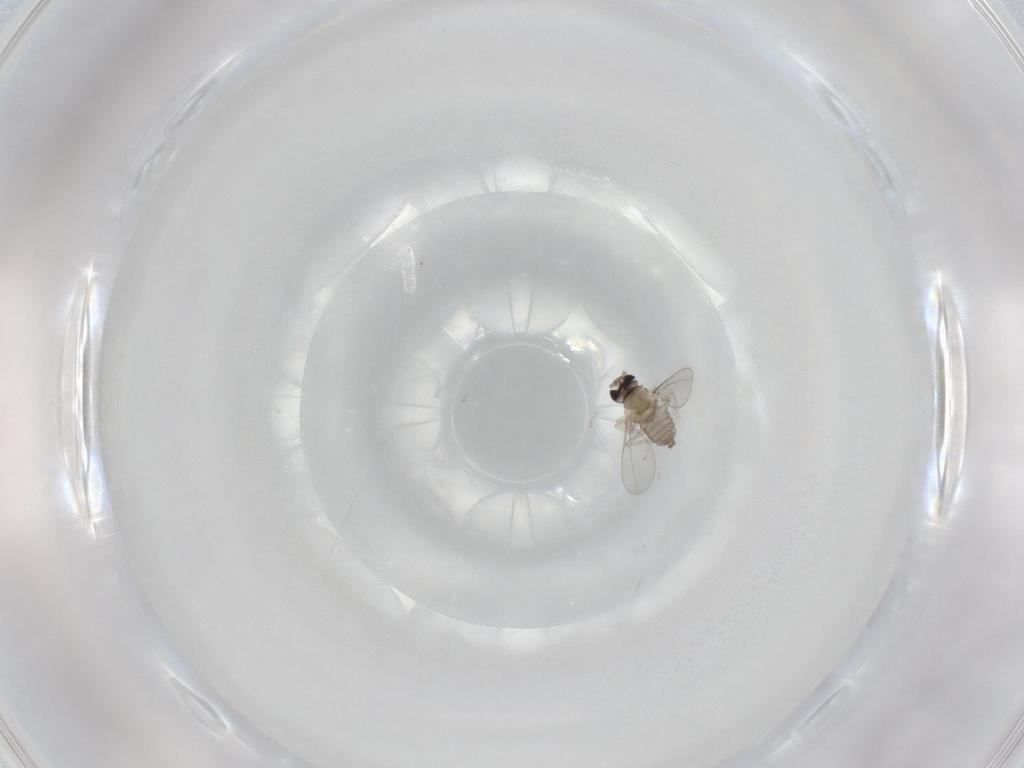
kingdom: Animalia
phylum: Arthropoda
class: Insecta
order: Diptera
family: Cecidomyiidae
